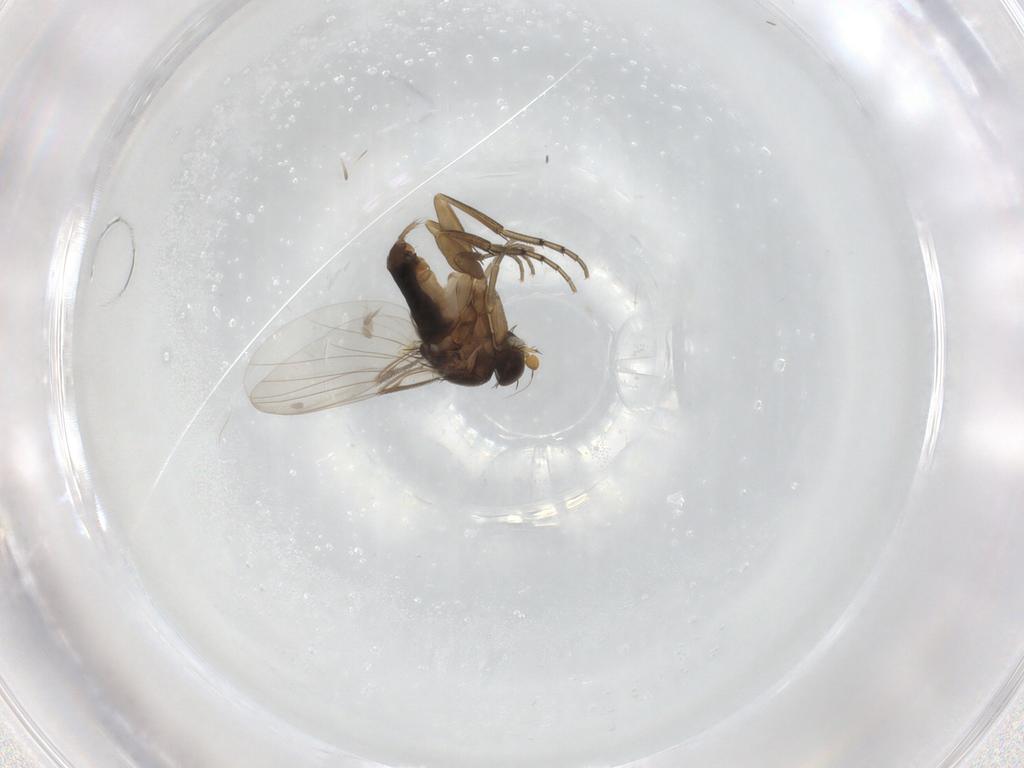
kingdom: Animalia
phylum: Arthropoda
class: Insecta
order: Diptera
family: Phoridae
